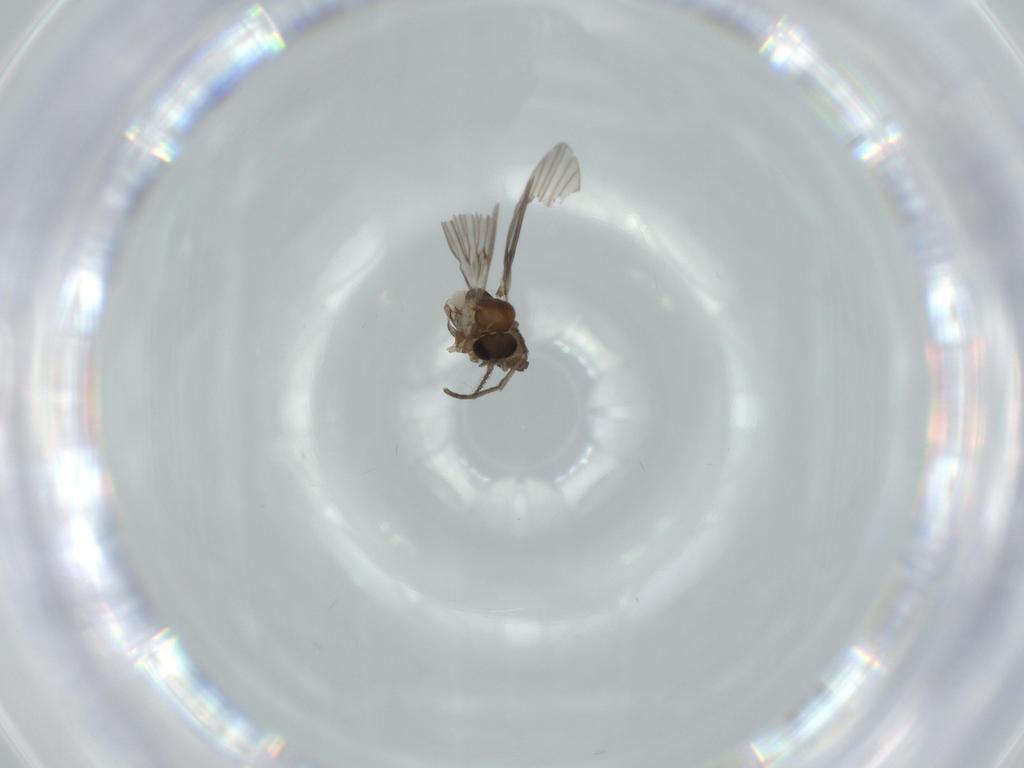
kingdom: Animalia
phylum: Arthropoda
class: Insecta
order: Diptera
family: Psychodidae
